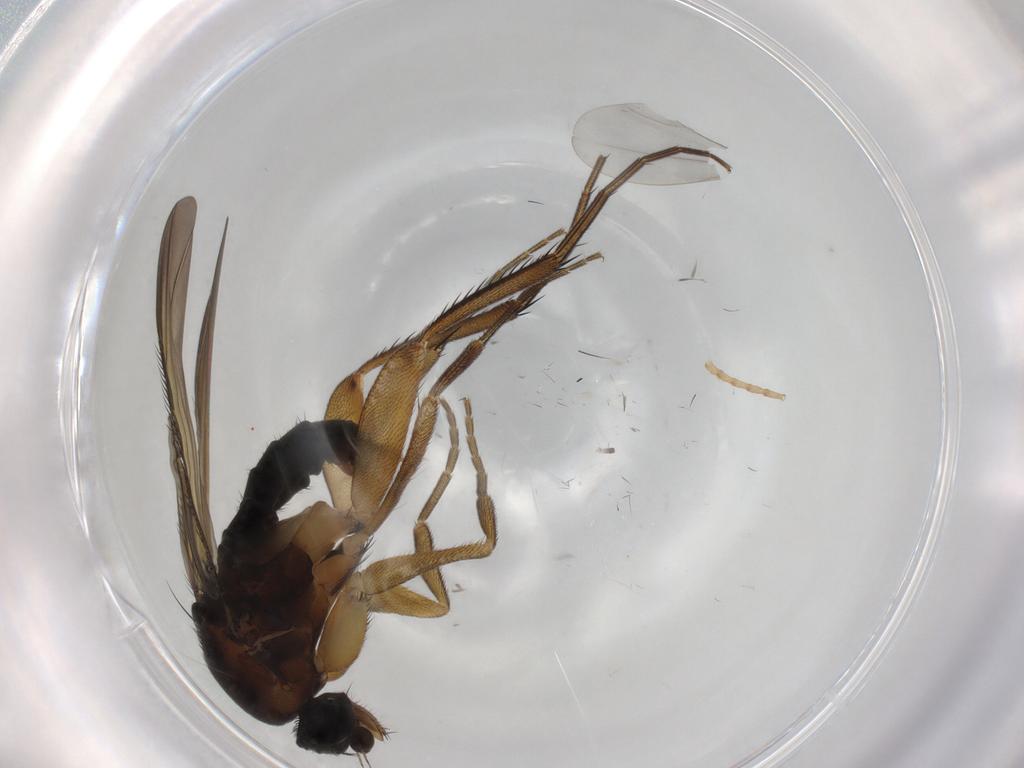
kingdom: Animalia
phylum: Arthropoda
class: Insecta
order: Diptera
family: Phoridae
